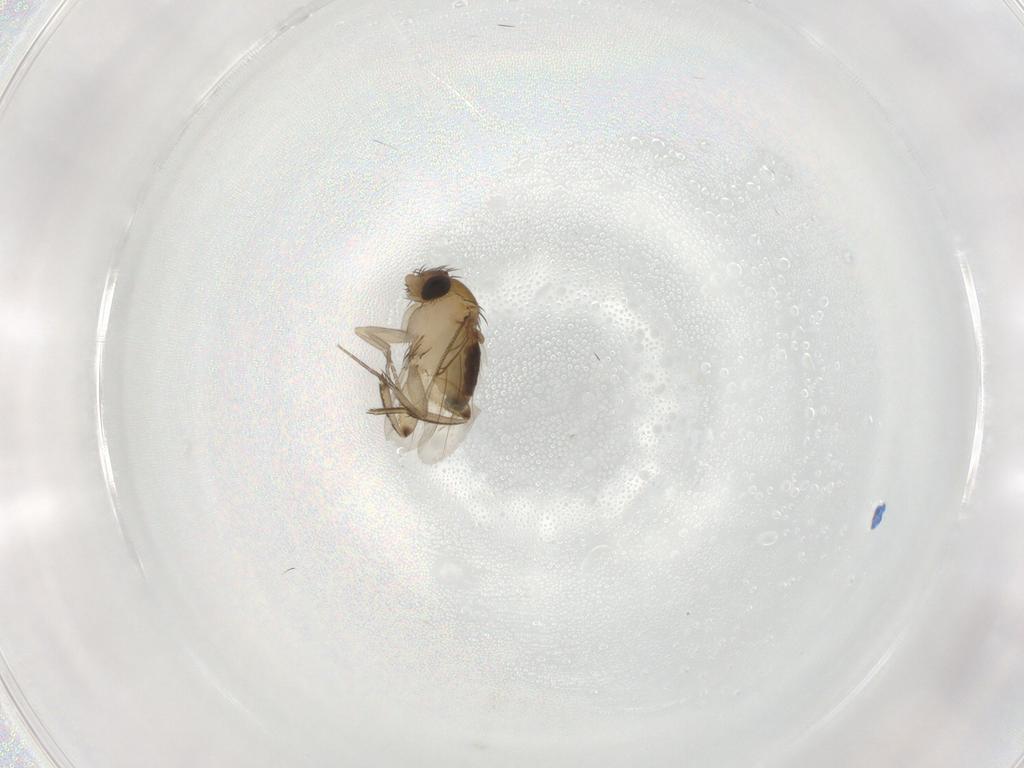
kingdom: Animalia
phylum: Arthropoda
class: Insecta
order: Diptera
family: Phoridae
